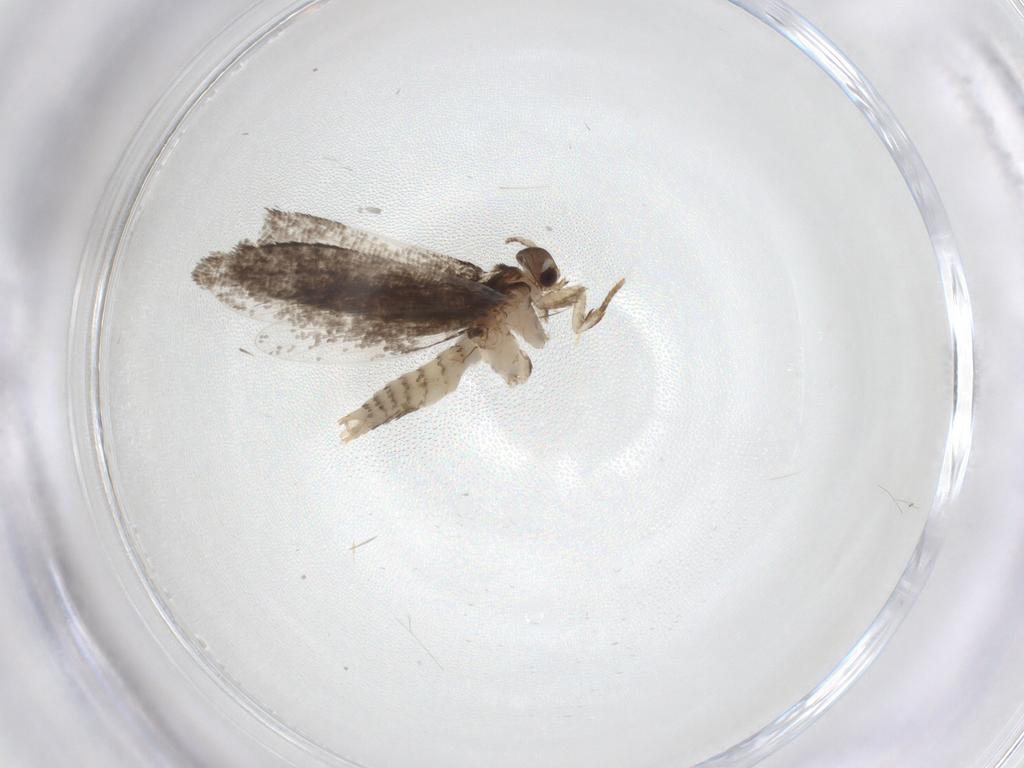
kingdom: Animalia
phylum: Arthropoda
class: Insecta
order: Lepidoptera
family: Crambidae
